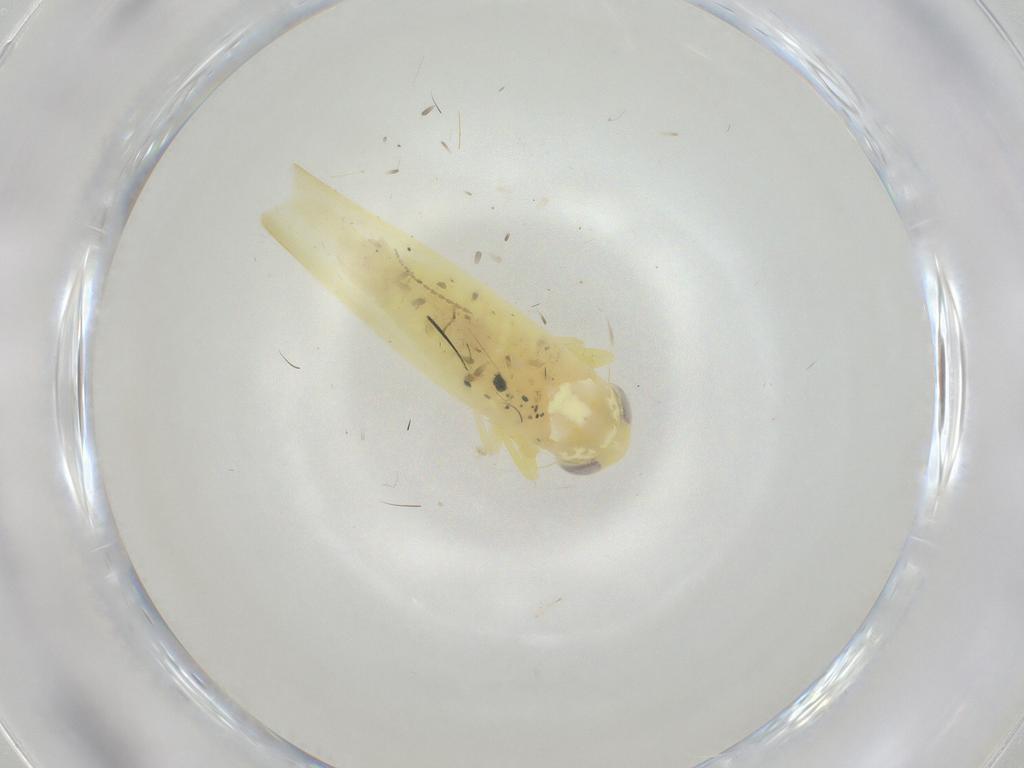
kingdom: Animalia
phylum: Arthropoda
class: Insecta
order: Hemiptera
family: Cicadellidae
